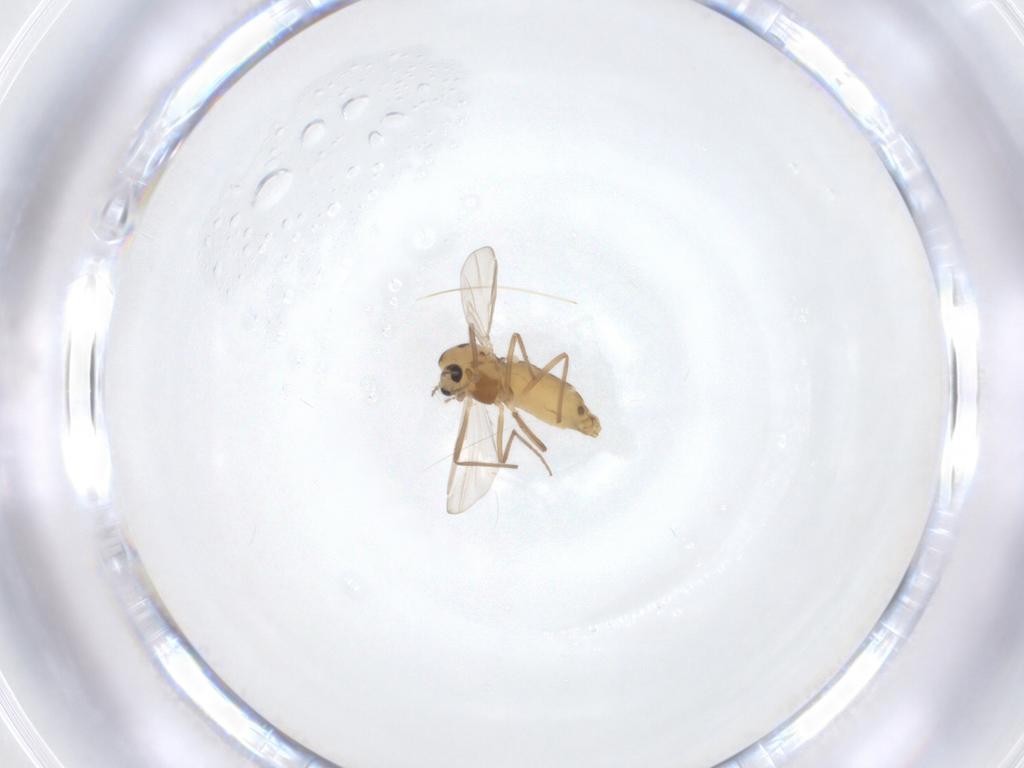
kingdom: Animalia
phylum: Arthropoda
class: Insecta
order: Diptera
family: Chironomidae
